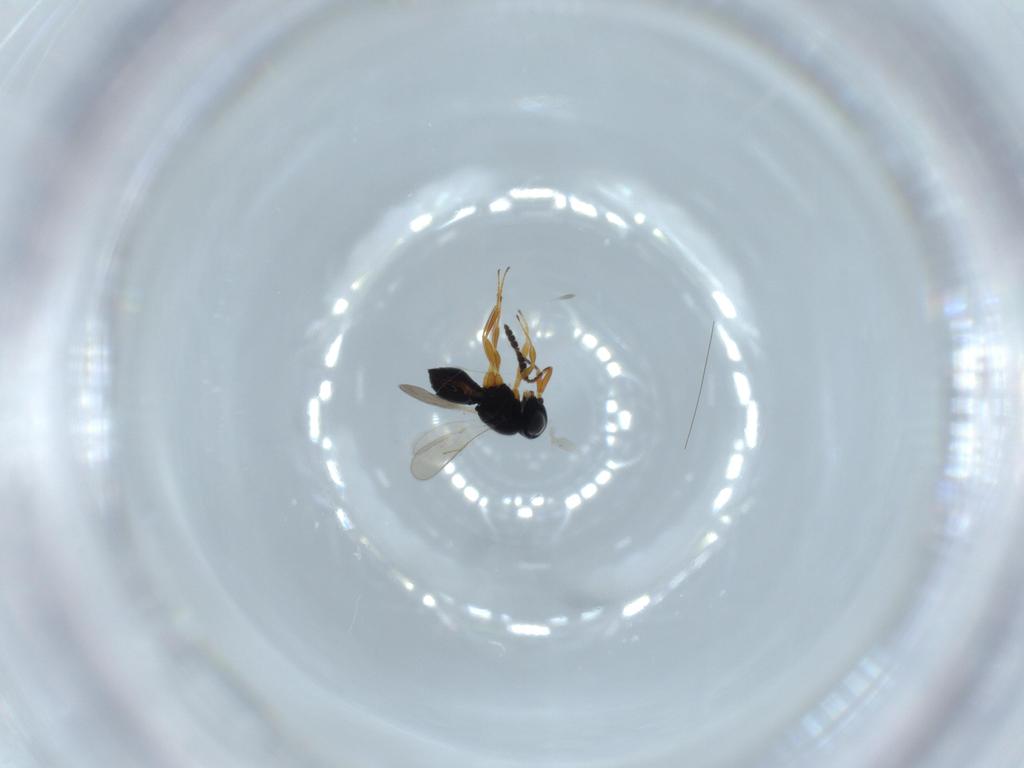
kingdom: Animalia
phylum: Arthropoda
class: Insecta
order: Hymenoptera
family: Scelionidae
